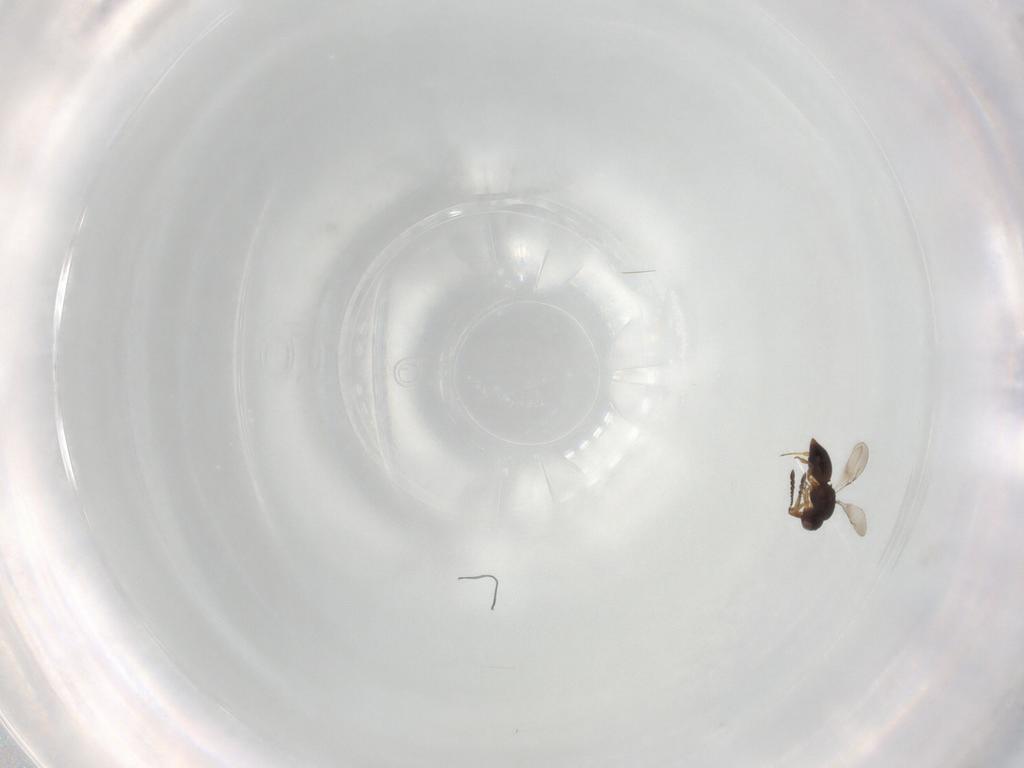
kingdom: Animalia
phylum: Arthropoda
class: Insecta
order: Hymenoptera
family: Ceraphronidae
